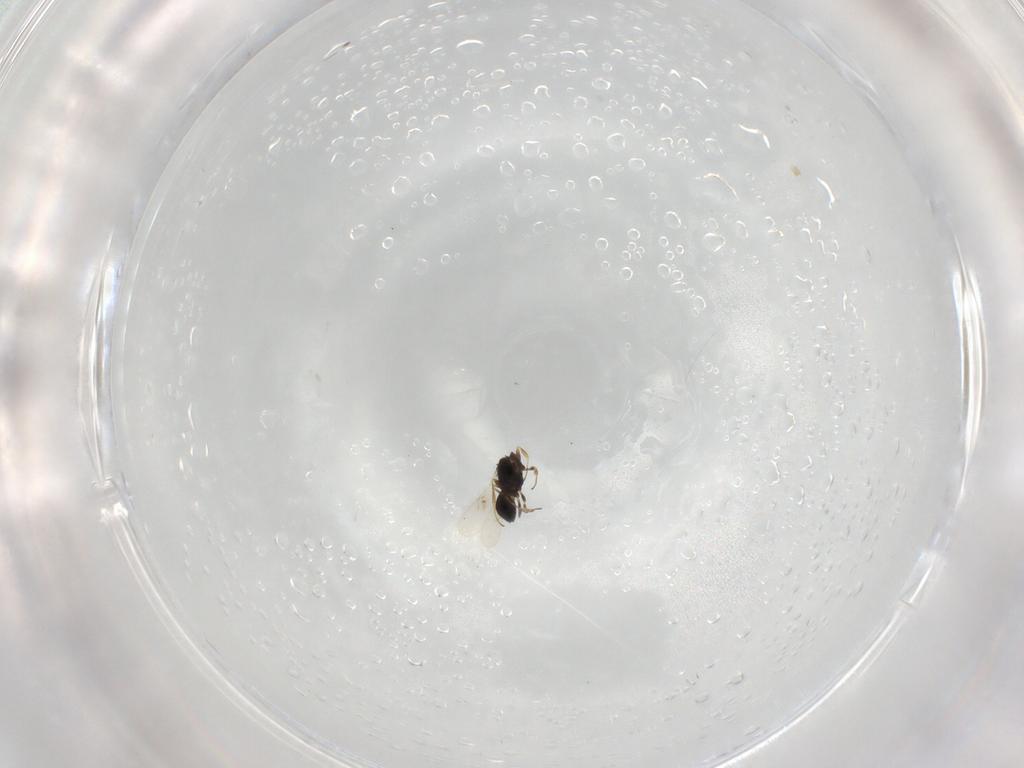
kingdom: Animalia
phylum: Arthropoda
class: Insecta
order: Hymenoptera
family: Scelionidae
